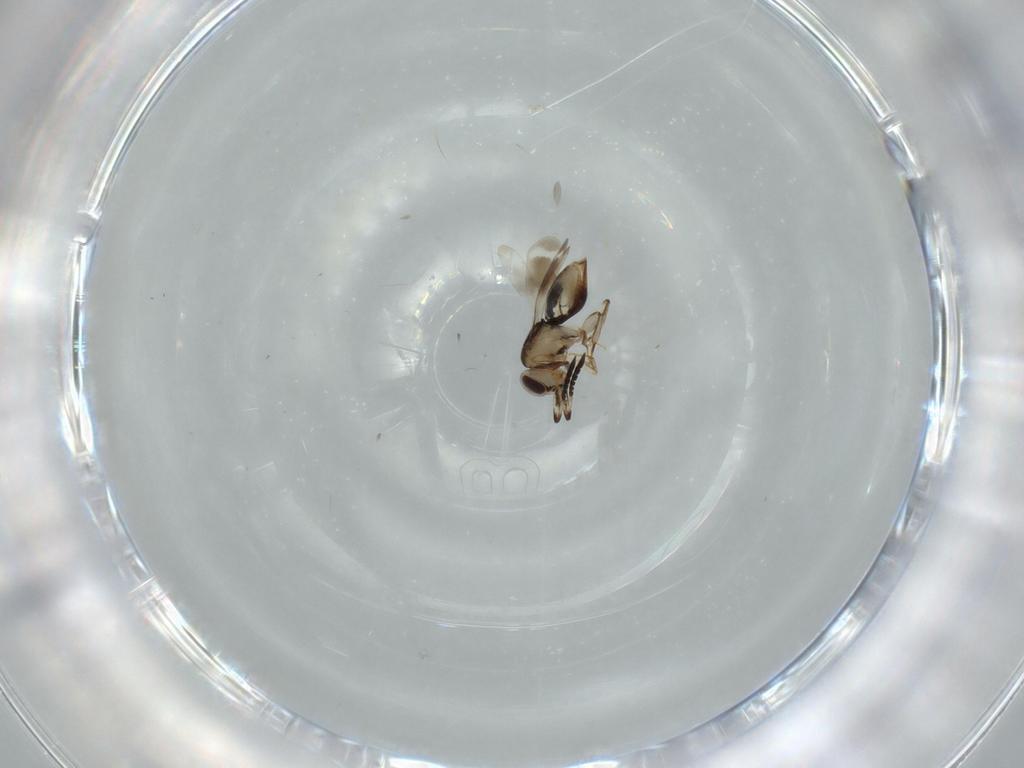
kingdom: Animalia
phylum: Arthropoda
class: Insecta
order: Hymenoptera
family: Formicidae
